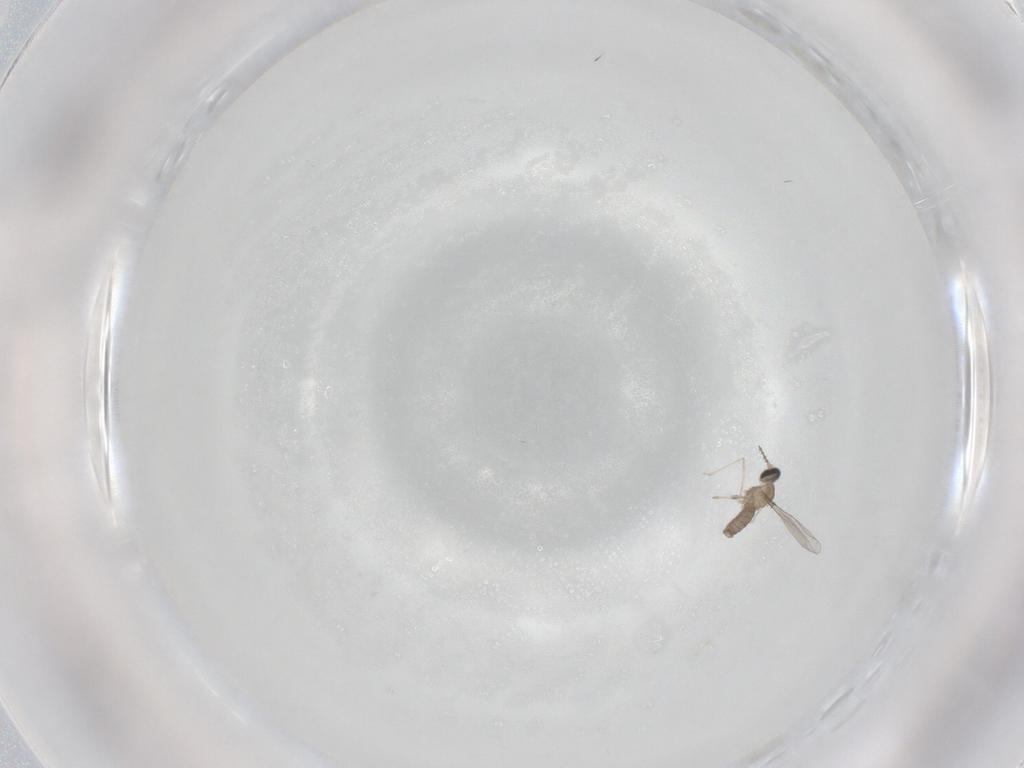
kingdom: Animalia
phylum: Arthropoda
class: Insecta
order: Diptera
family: Cecidomyiidae
